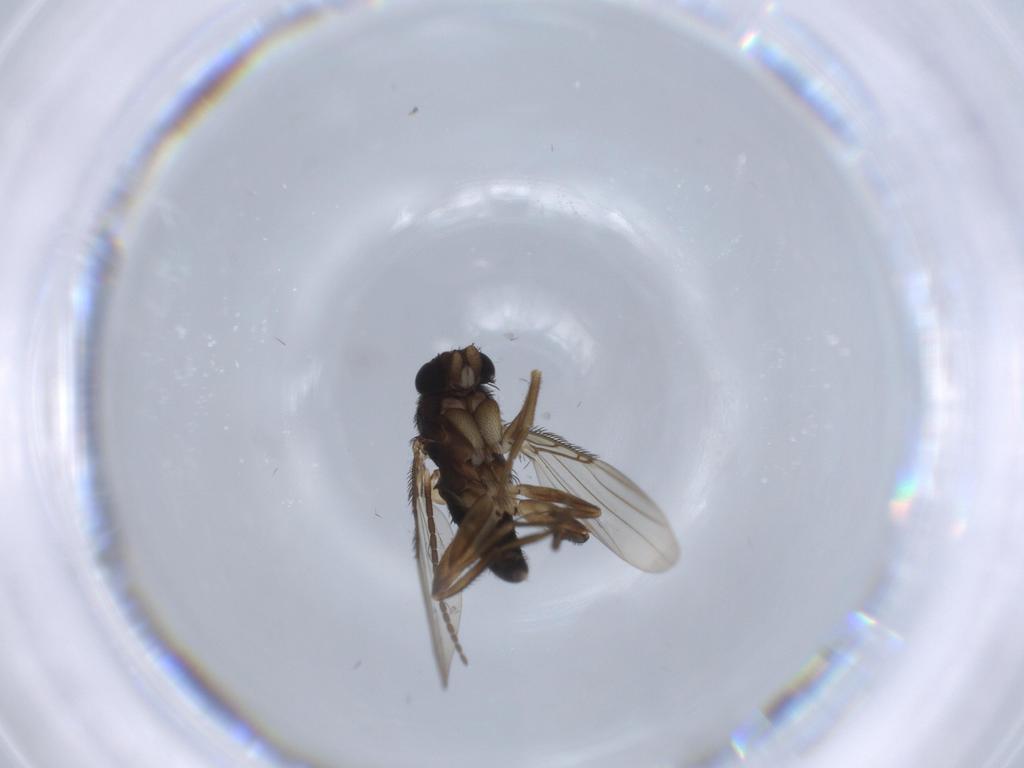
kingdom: Animalia
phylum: Arthropoda
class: Insecta
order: Diptera
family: Phoridae
